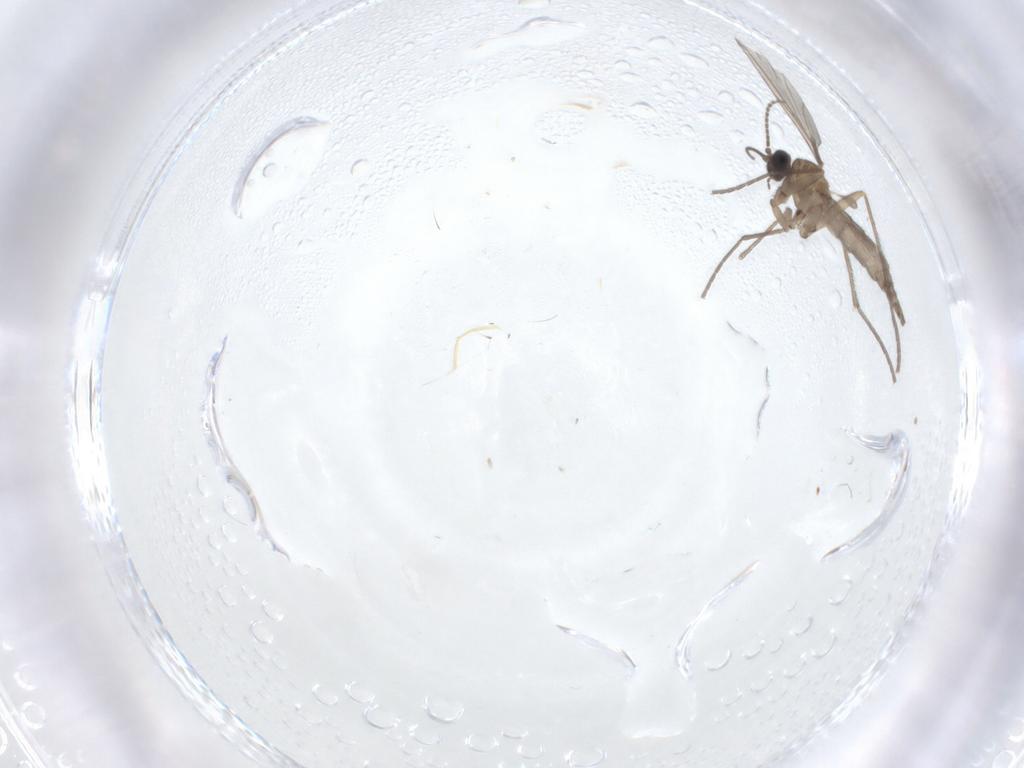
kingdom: Animalia
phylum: Arthropoda
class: Insecta
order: Diptera
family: Sciaridae
